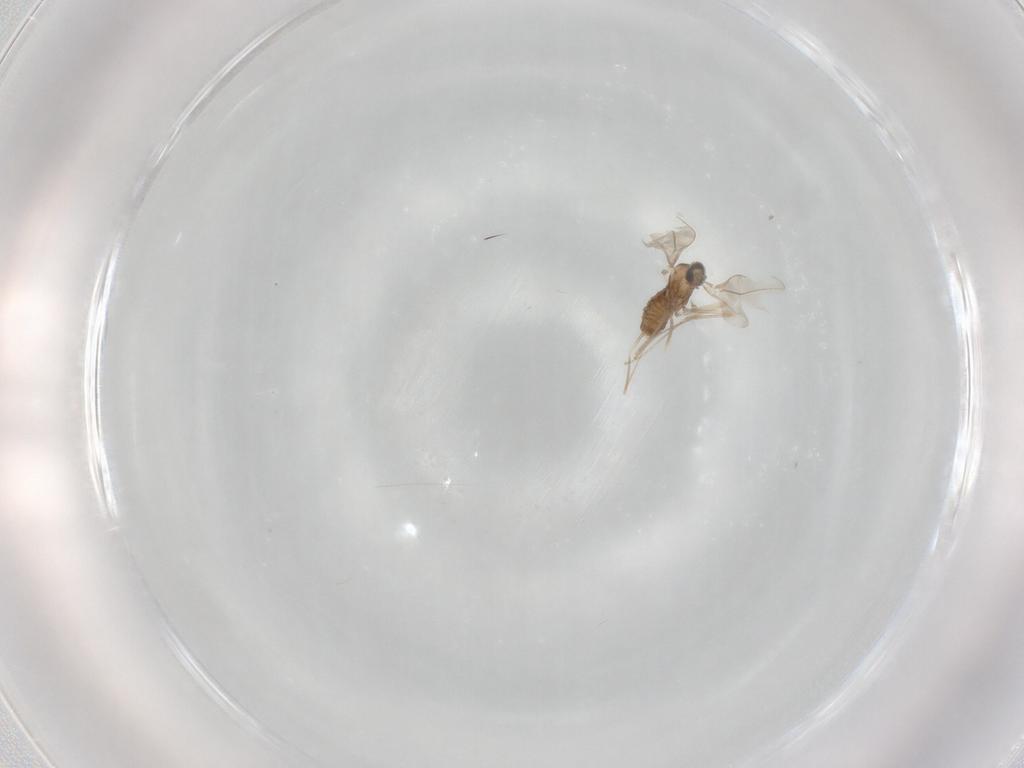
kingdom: Animalia
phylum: Arthropoda
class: Insecta
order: Diptera
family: Cecidomyiidae
